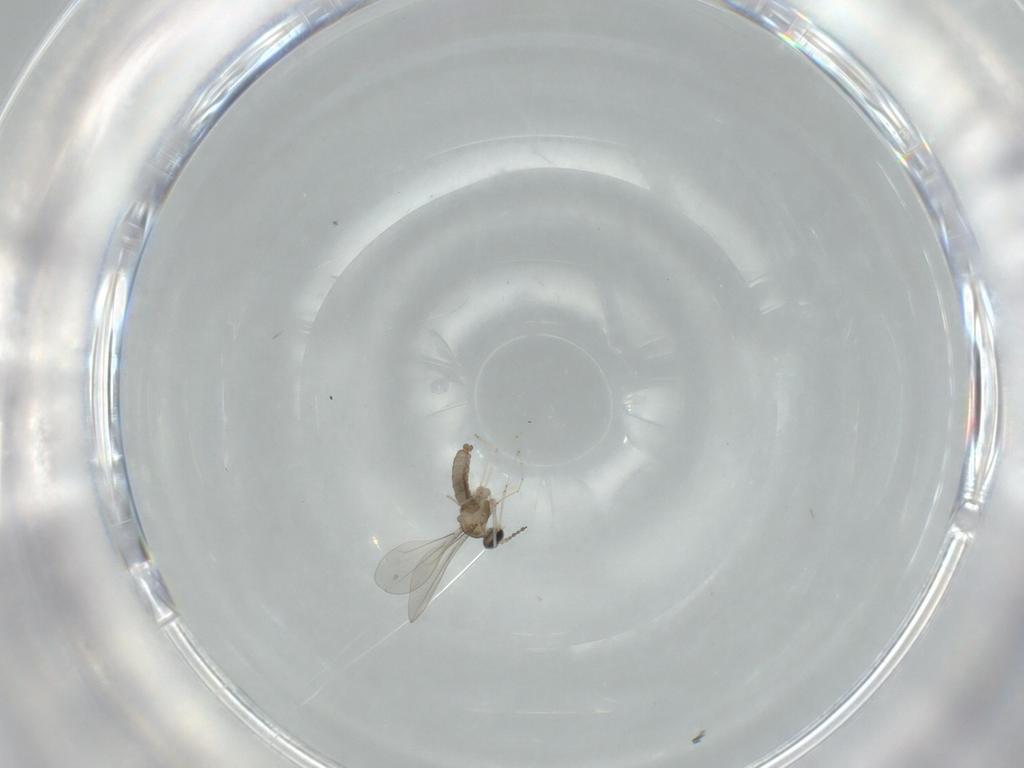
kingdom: Animalia
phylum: Arthropoda
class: Insecta
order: Diptera
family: Cecidomyiidae
